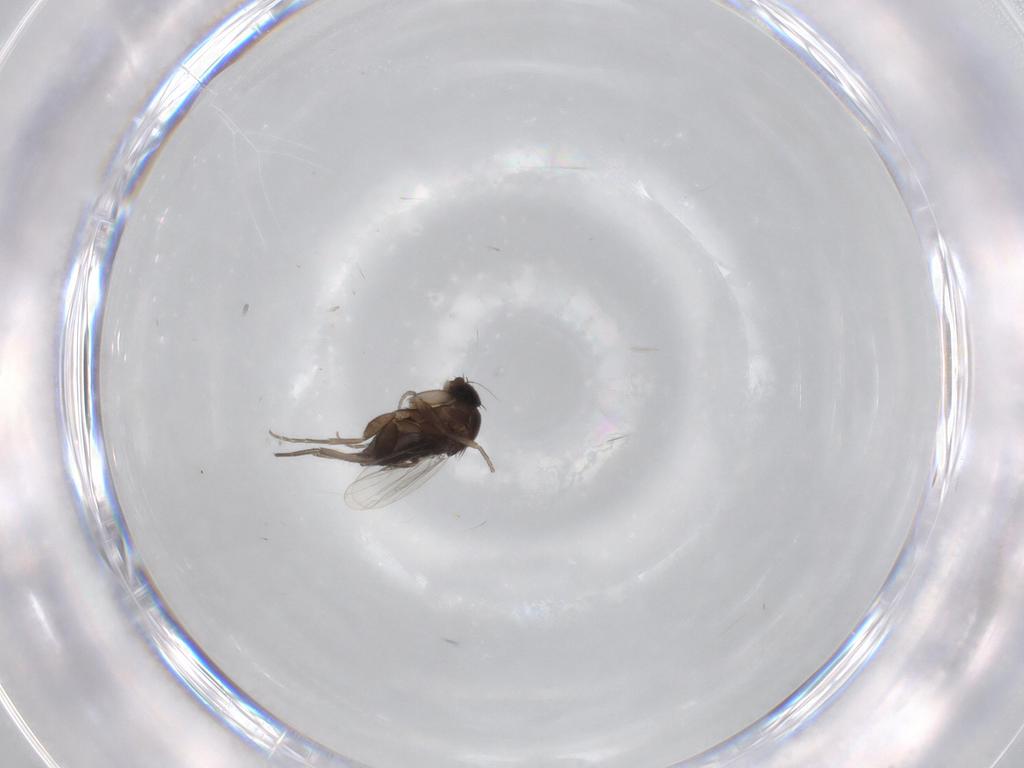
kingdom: Animalia
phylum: Arthropoda
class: Insecta
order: Diptera
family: Phoridae
